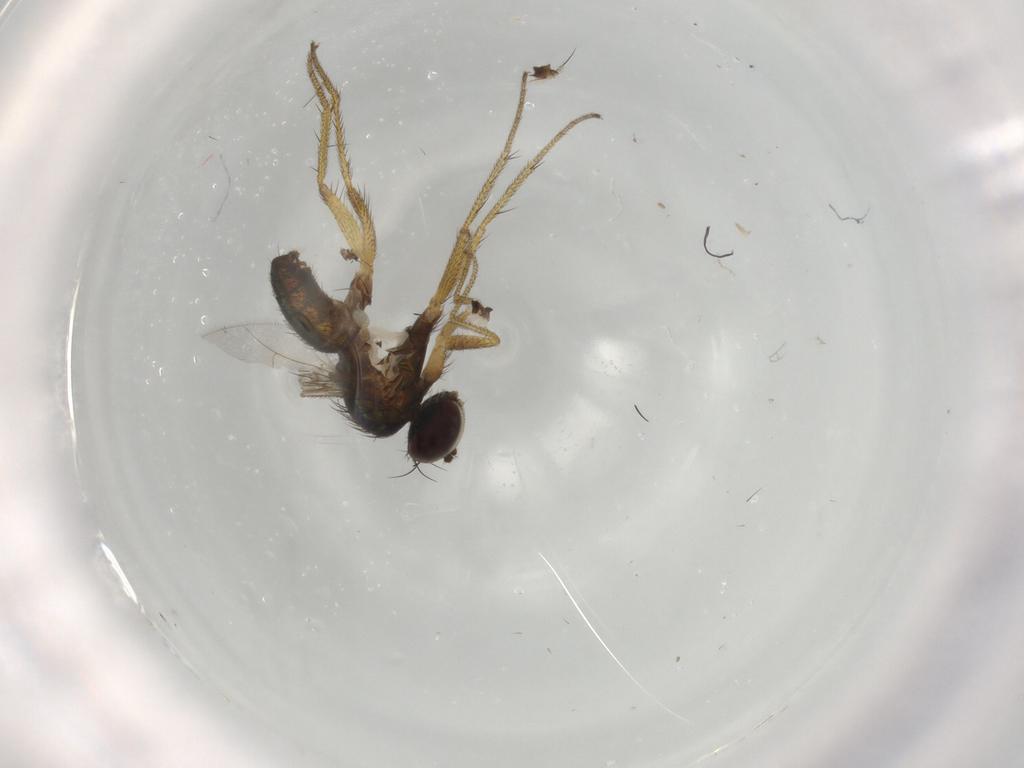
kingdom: Animalia
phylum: Arthropoda
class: Insecta
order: Diptera
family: Dolichopodidae
